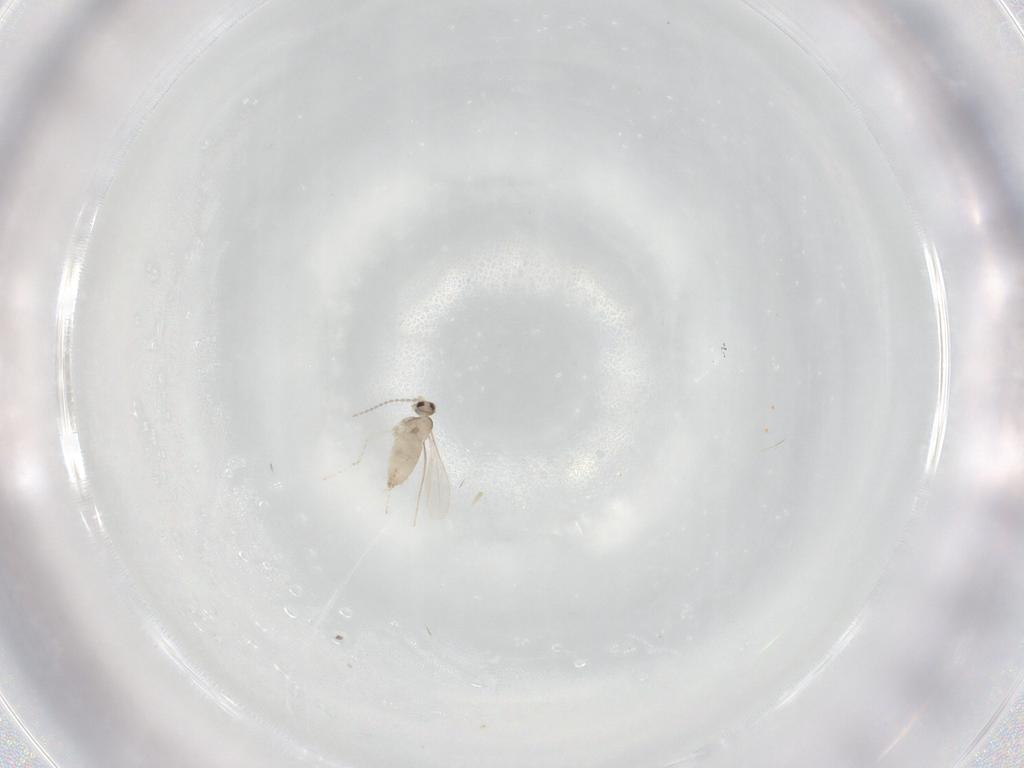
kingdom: Animalia
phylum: Arthropoda
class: Insecta
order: Diptera
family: Cecidomyiidae
